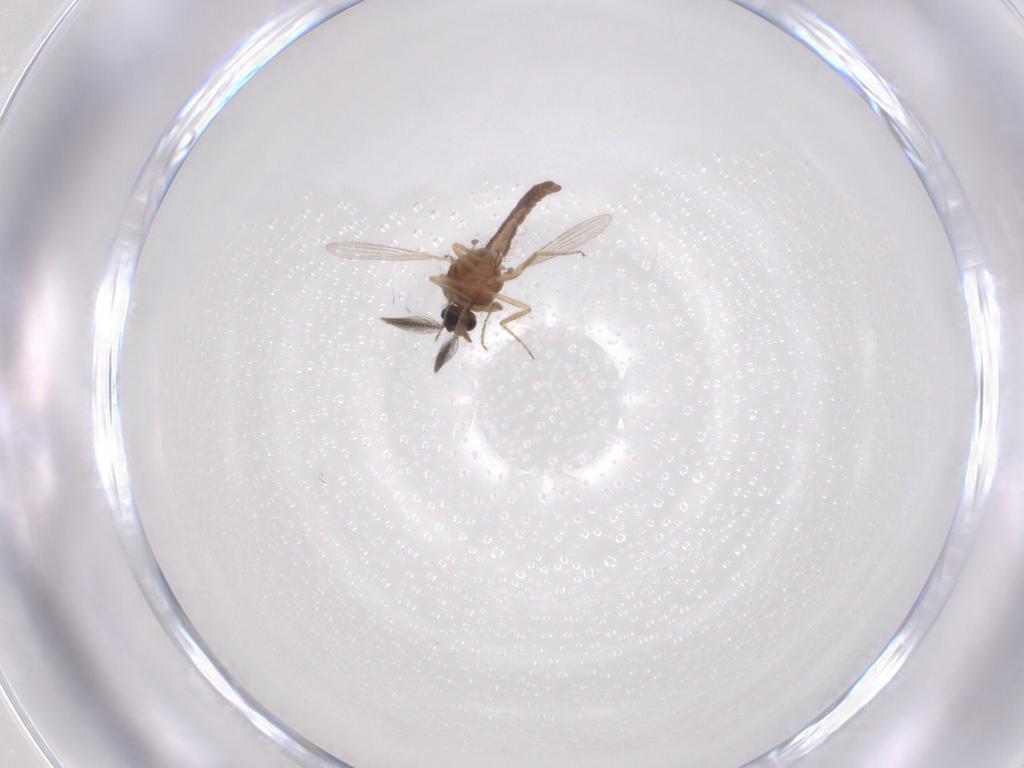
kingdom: Animalia
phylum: Arthropoda
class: Insecta
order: Diptera
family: Ceratopogonidae
